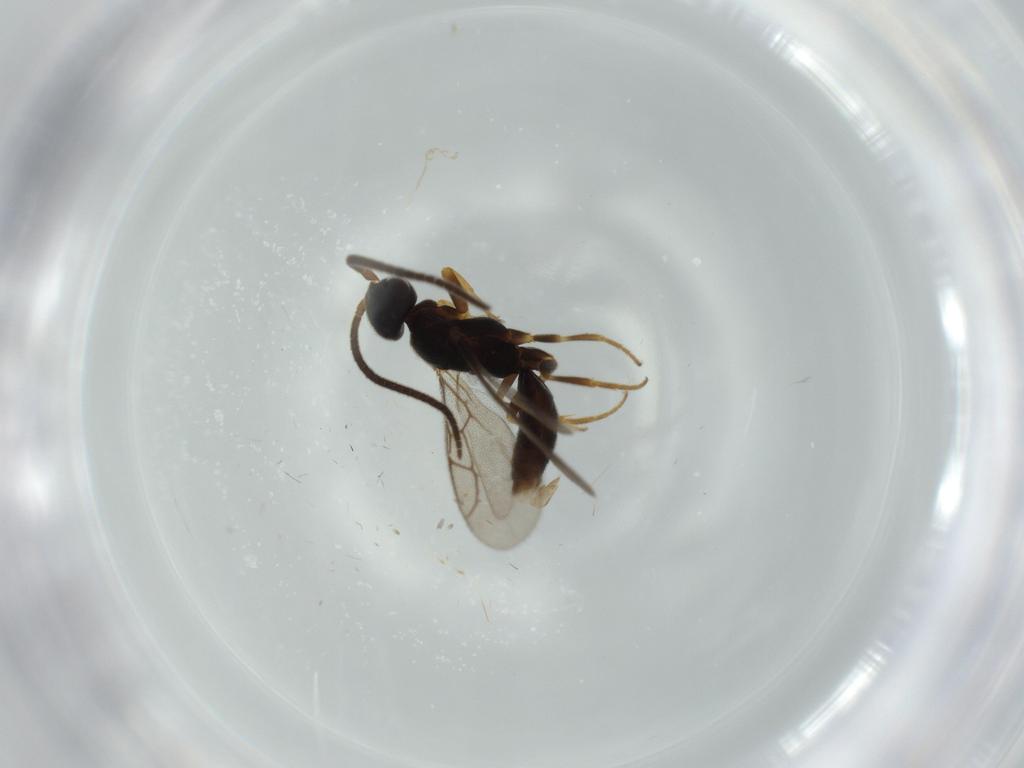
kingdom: Animalia
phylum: Arthropoda
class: Insecta
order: Hymenoptera
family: Sclerogibbidae
